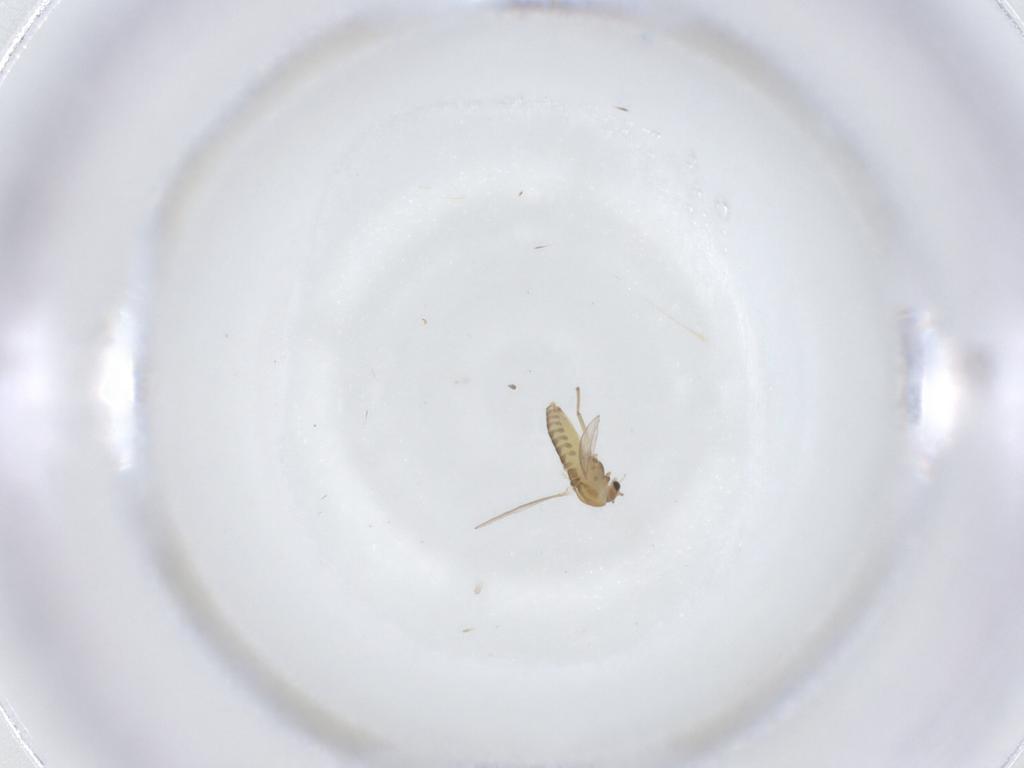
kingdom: Animalia
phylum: Arthropoda
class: Insecta
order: Diptera
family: Chironomidae
